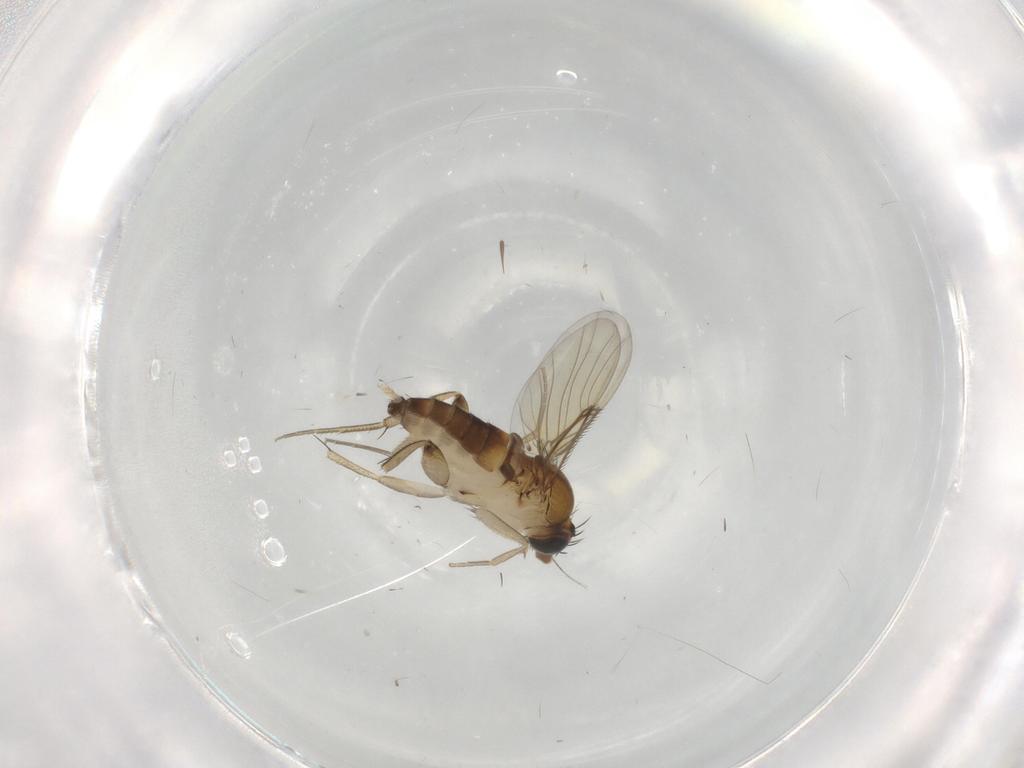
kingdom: Animalia
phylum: Arthropoda
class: Insecta
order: Diptera
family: Phoridae
